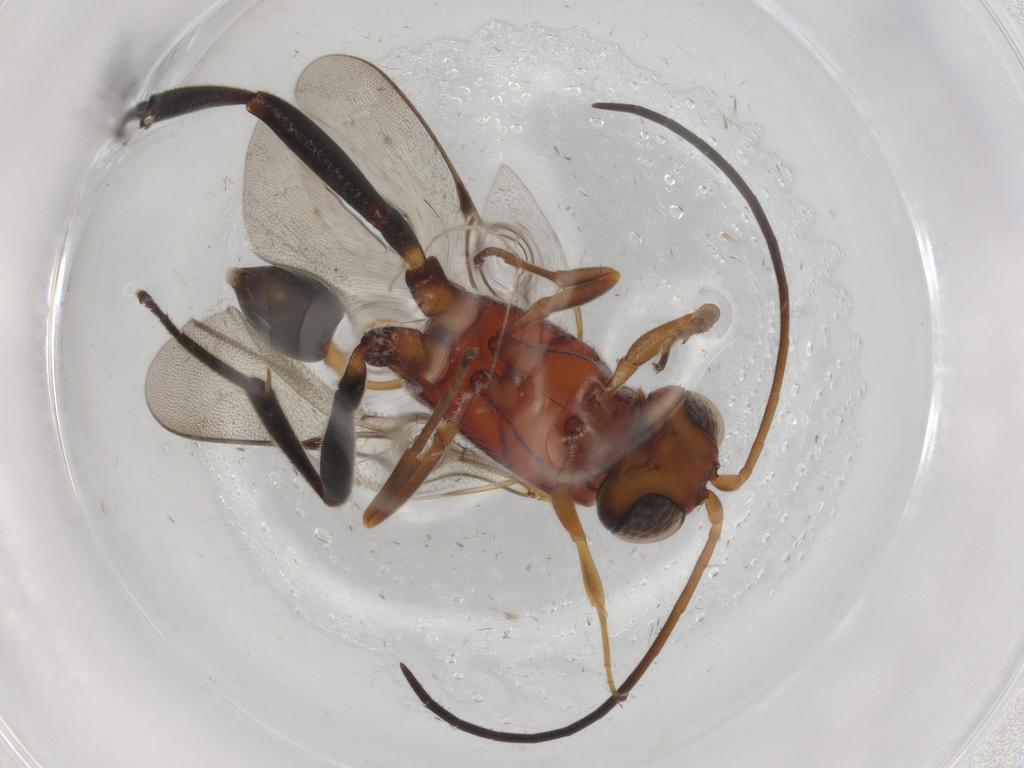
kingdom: Animalia
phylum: Arthropoda
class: Insecta
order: Hymenoptera
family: Evaniidae
